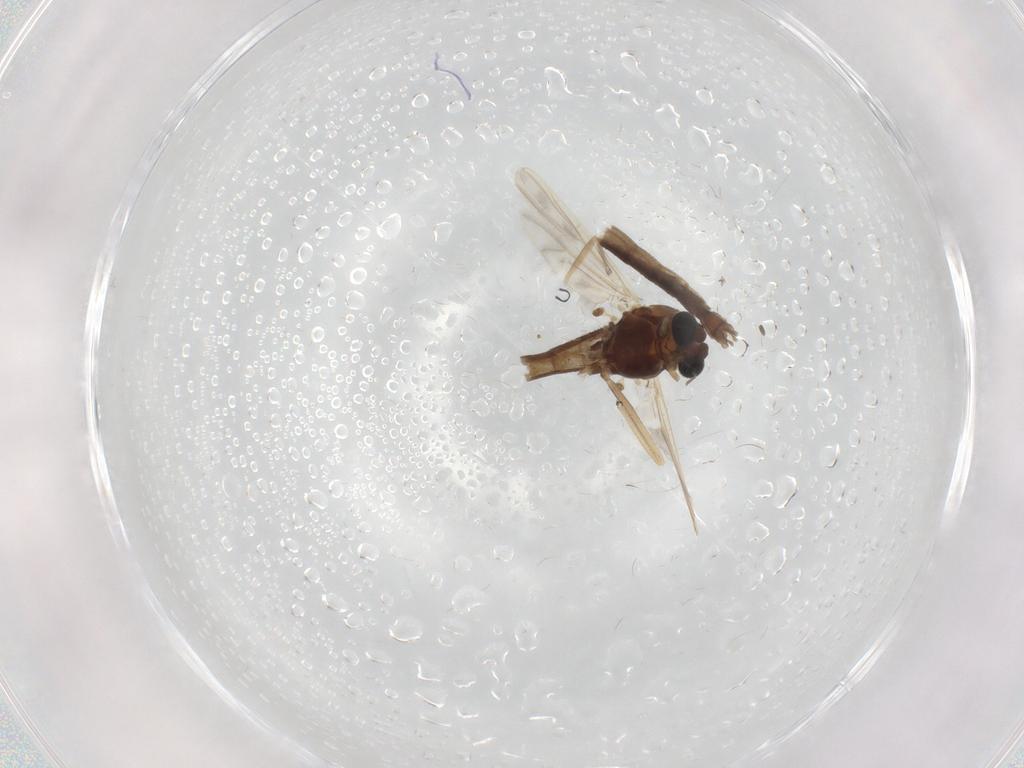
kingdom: Animalia
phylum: Arthropoda
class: Insecta
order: Diptera
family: Chironomidae
